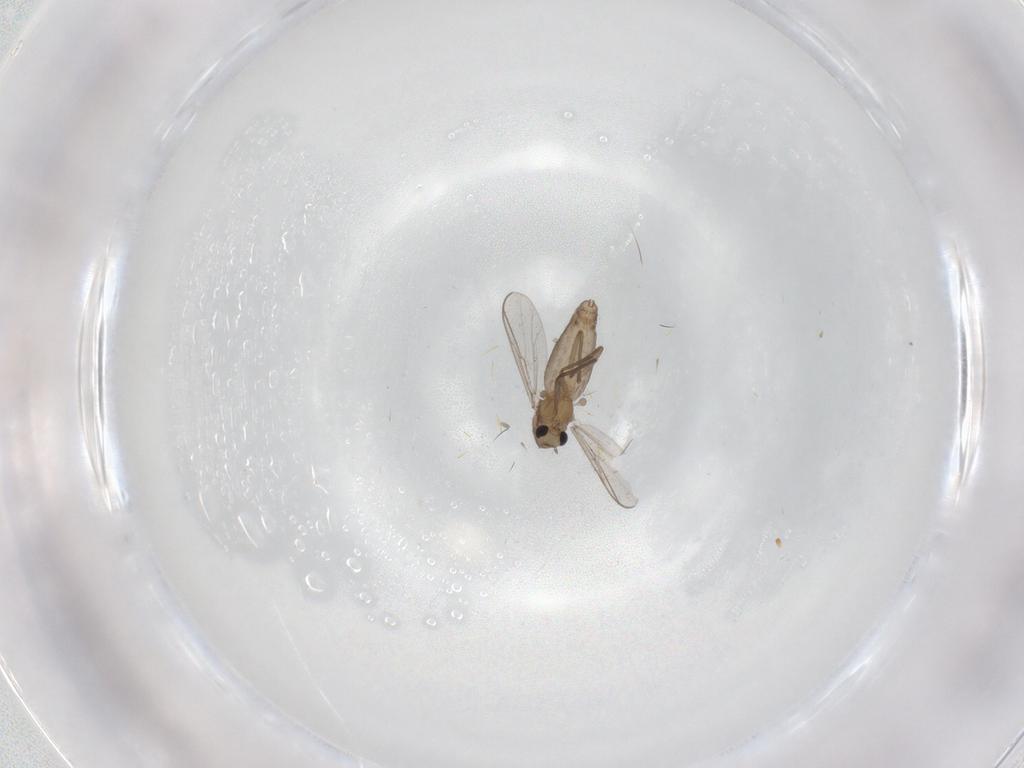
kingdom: Animalia
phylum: Arthropoda
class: Insecta
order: Diptera
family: Chironomidae
